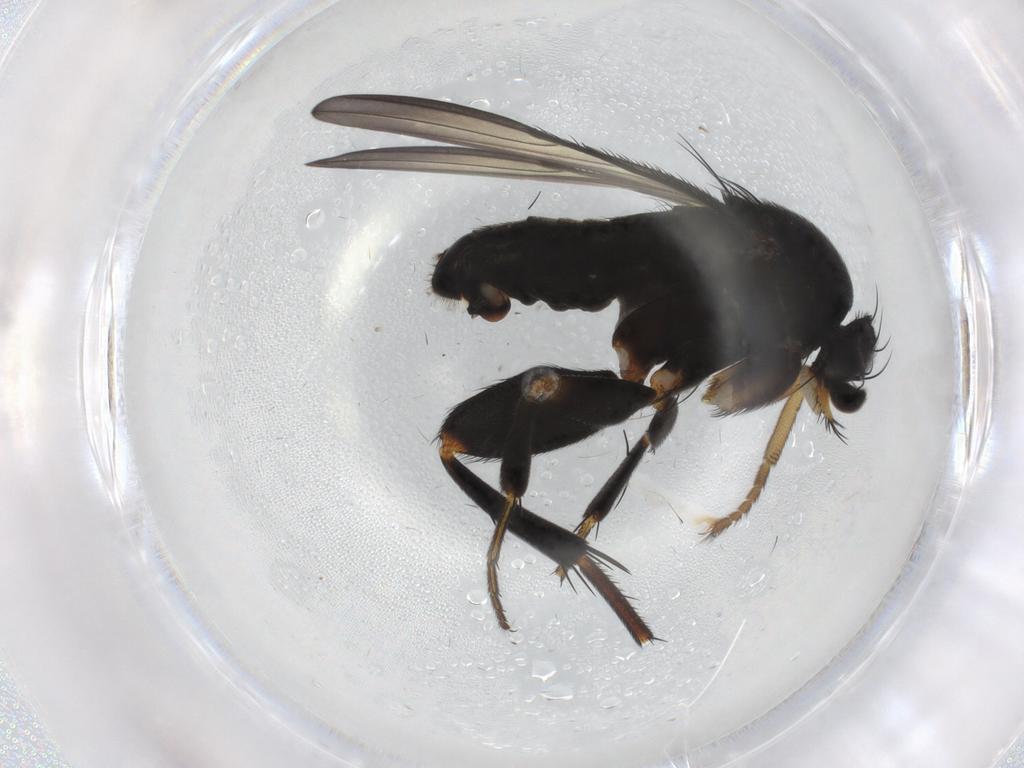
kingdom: Animalia
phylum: Arthropoda
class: Insecta
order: Diptera
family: Phoridae
